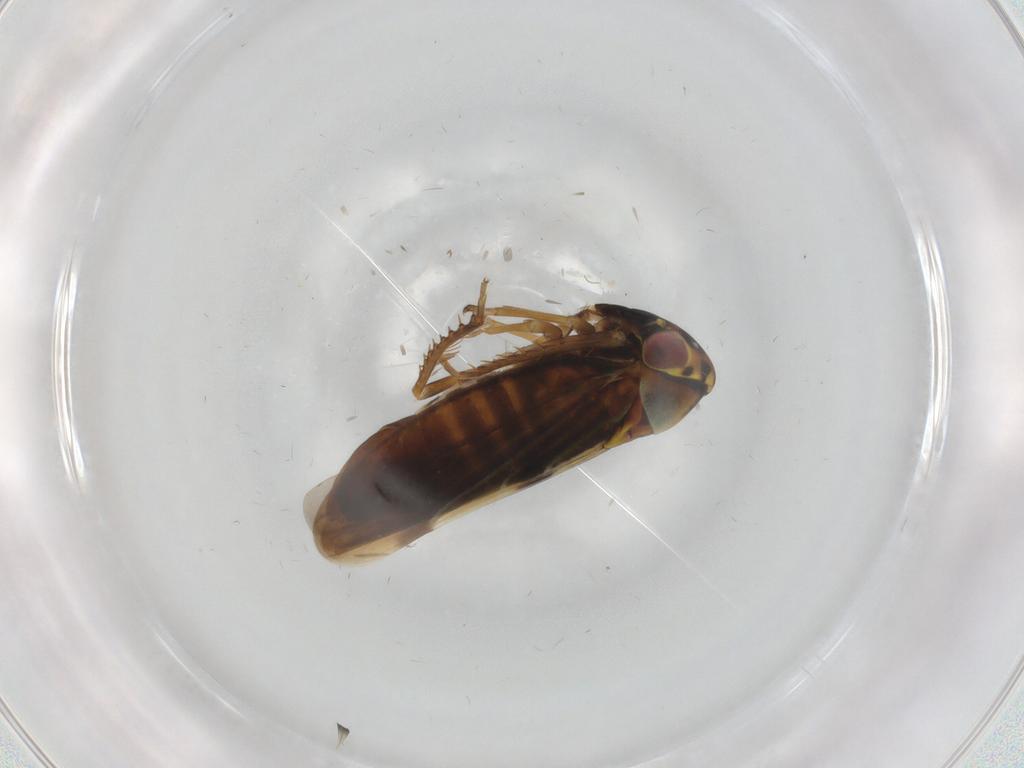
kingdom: Animalia
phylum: Arthropoda
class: Insecta
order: Hemiptera
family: Cicadellidae
